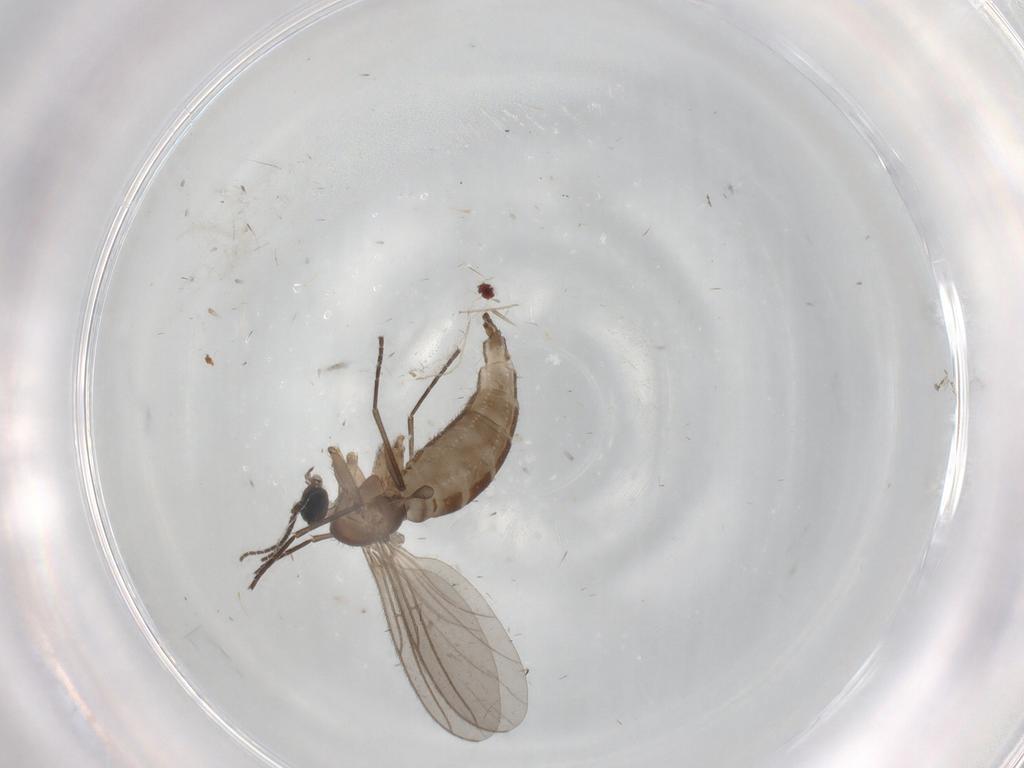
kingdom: Animalia
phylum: Arthropoda
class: Insecta
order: Diptera
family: Sciaridae
